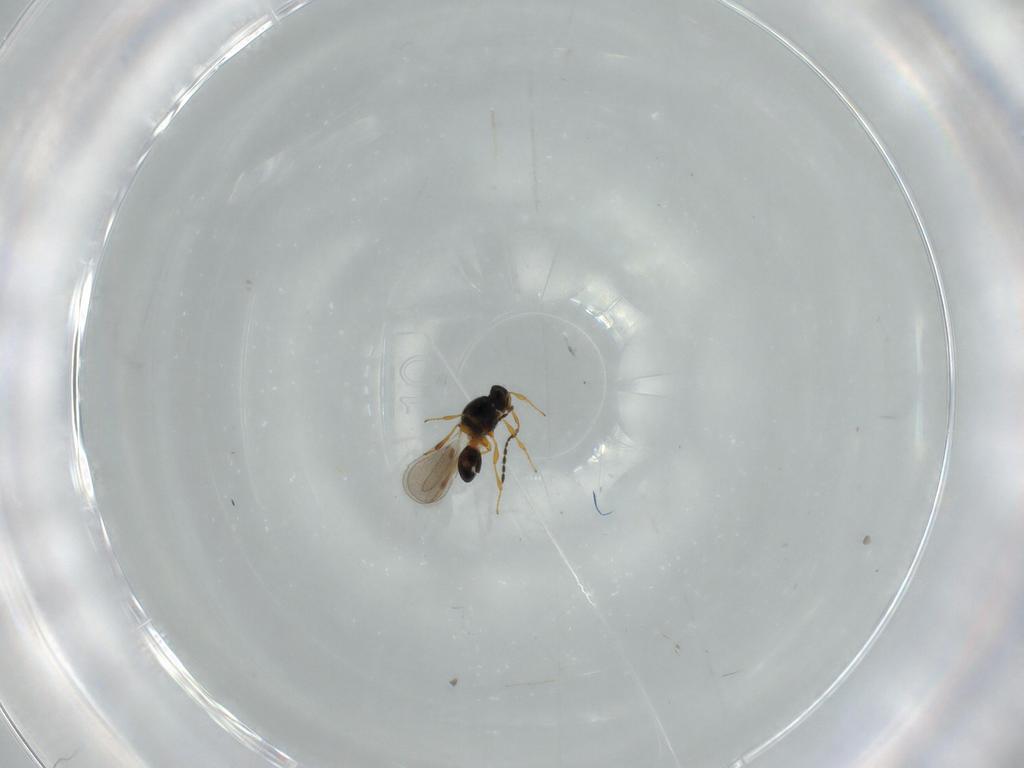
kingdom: Animalia
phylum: Arthropoda
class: Insecta
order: Hymenoptera
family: Platygastridae
